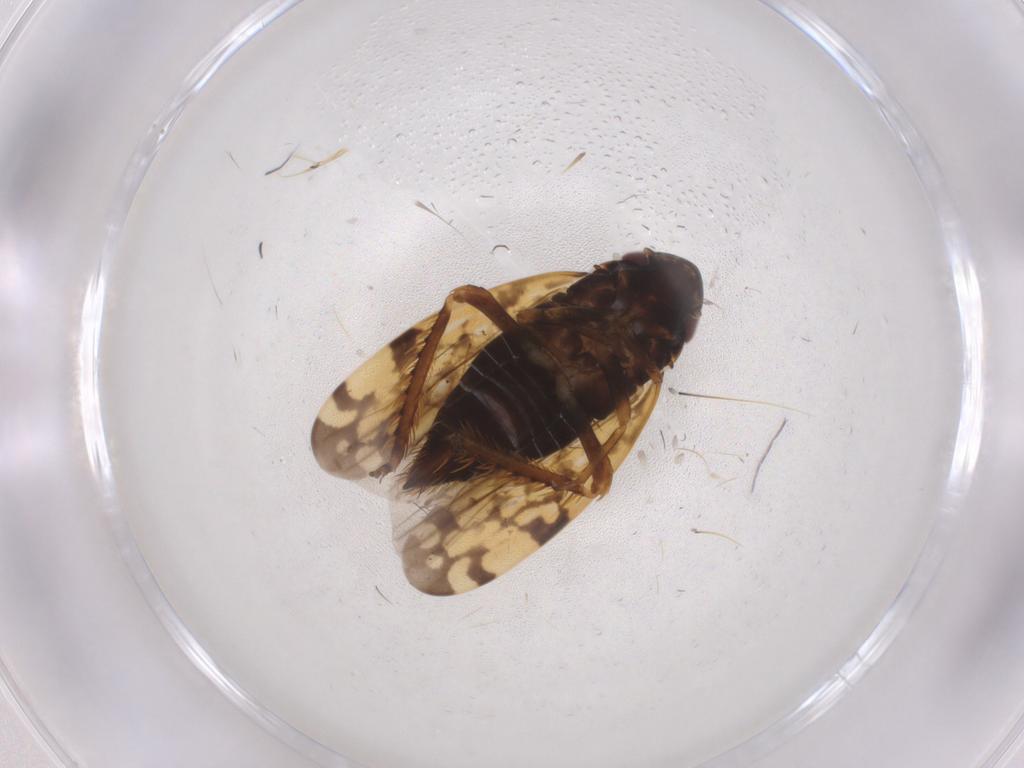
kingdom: Animalia
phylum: Arthropoda
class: Insecta
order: Hemiptera
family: Cicadellidae
